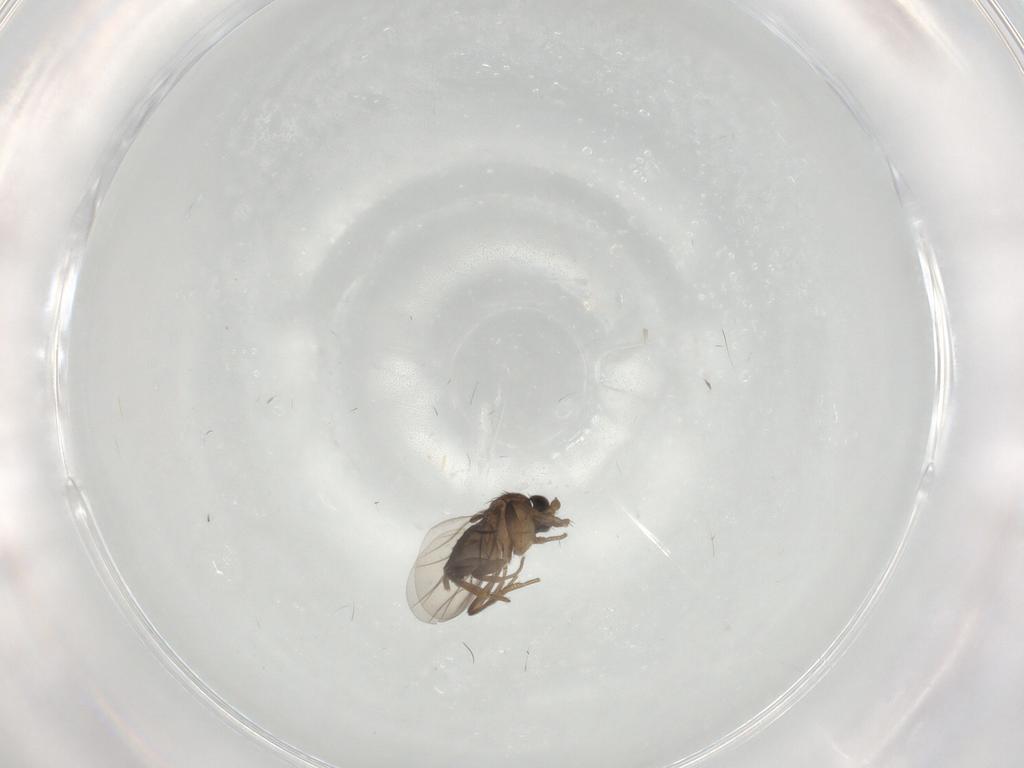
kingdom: Animalia
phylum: Arthropoda
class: Insecta
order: Diptera
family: Phoridae
